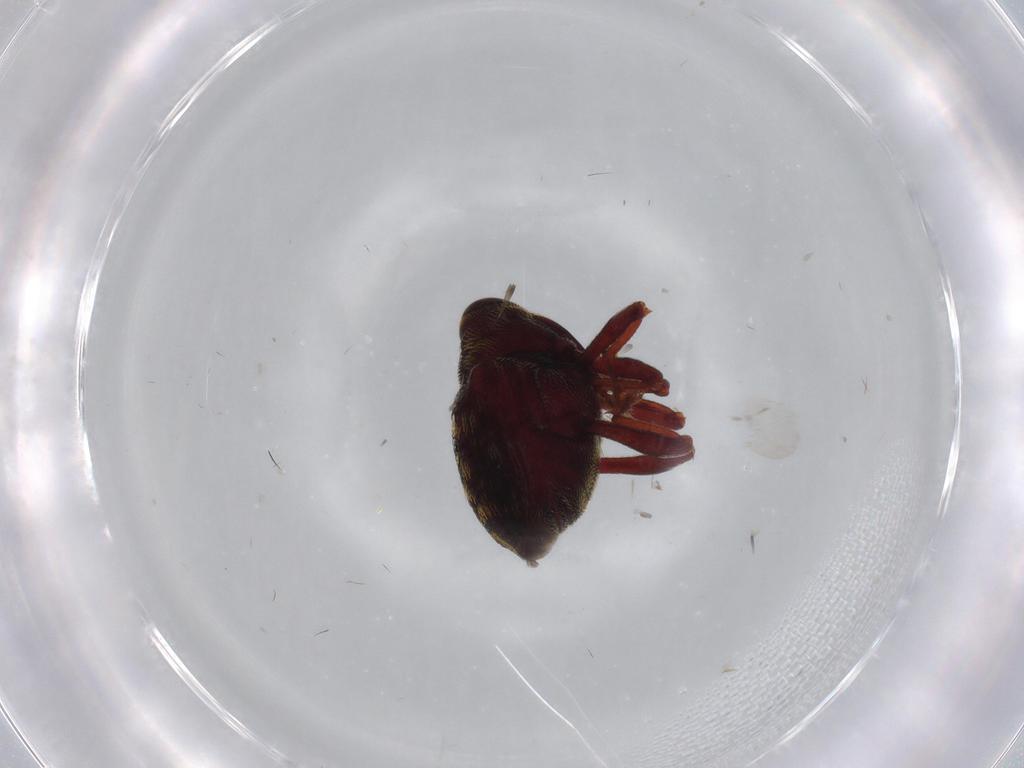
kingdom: Animalia
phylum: Arthropoda
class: Insecta
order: Coleoptera
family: Curculionidae
